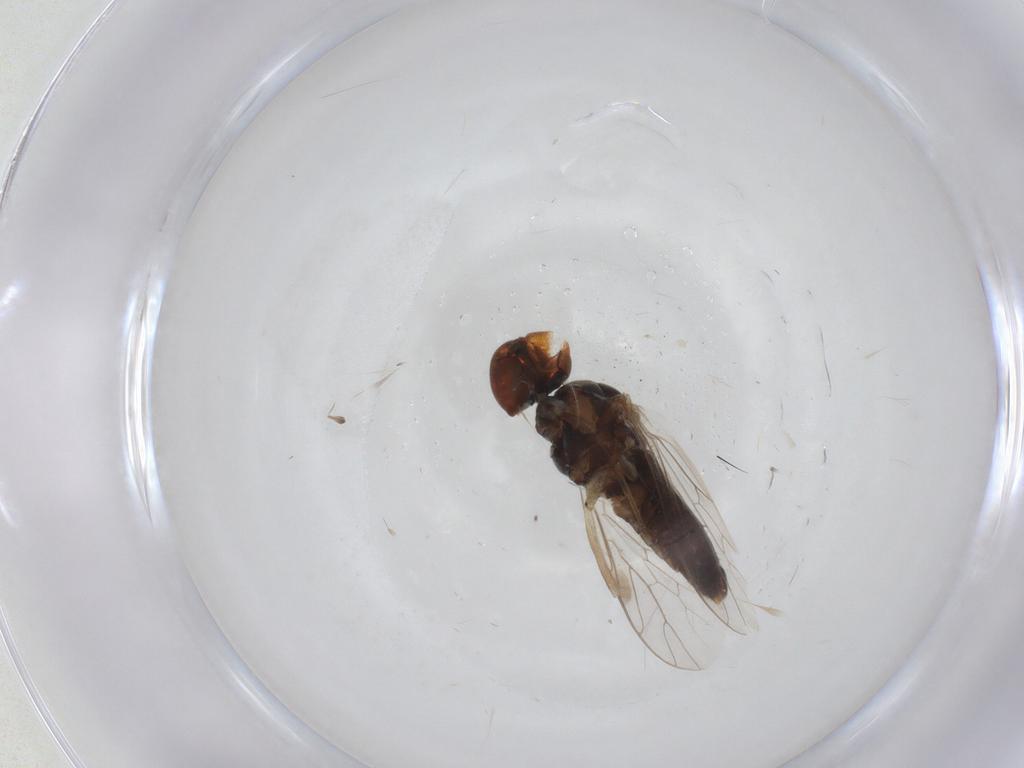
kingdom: Animalia
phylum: Arthropoda
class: Insecta
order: Diptera
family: Scenopinidae
